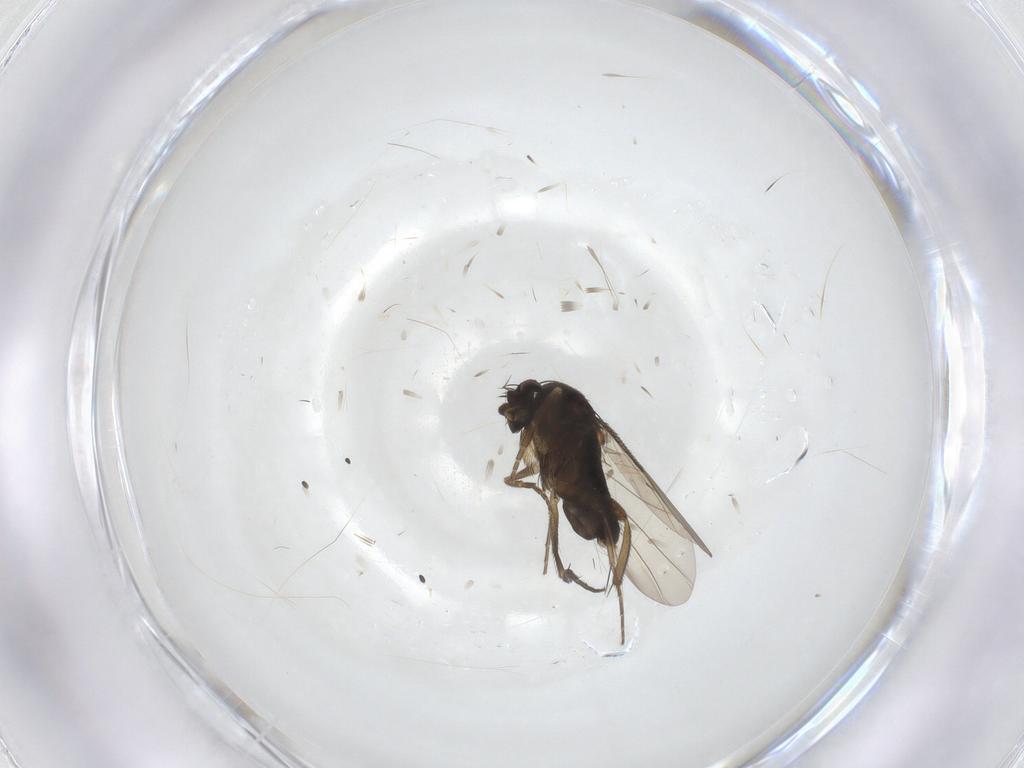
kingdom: Animalia
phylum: Arthropoda
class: Insecta
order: Diptera
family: Phoridae
